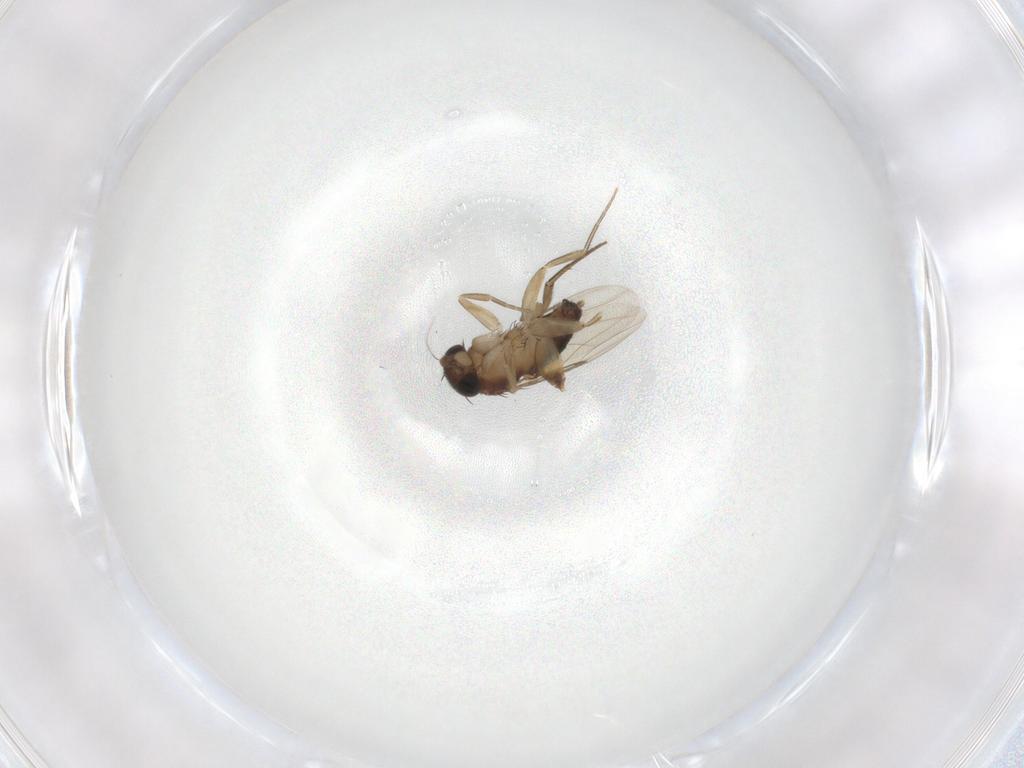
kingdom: Animalia
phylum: Arthropoda
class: Insecta
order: Diptera
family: Phoridae
